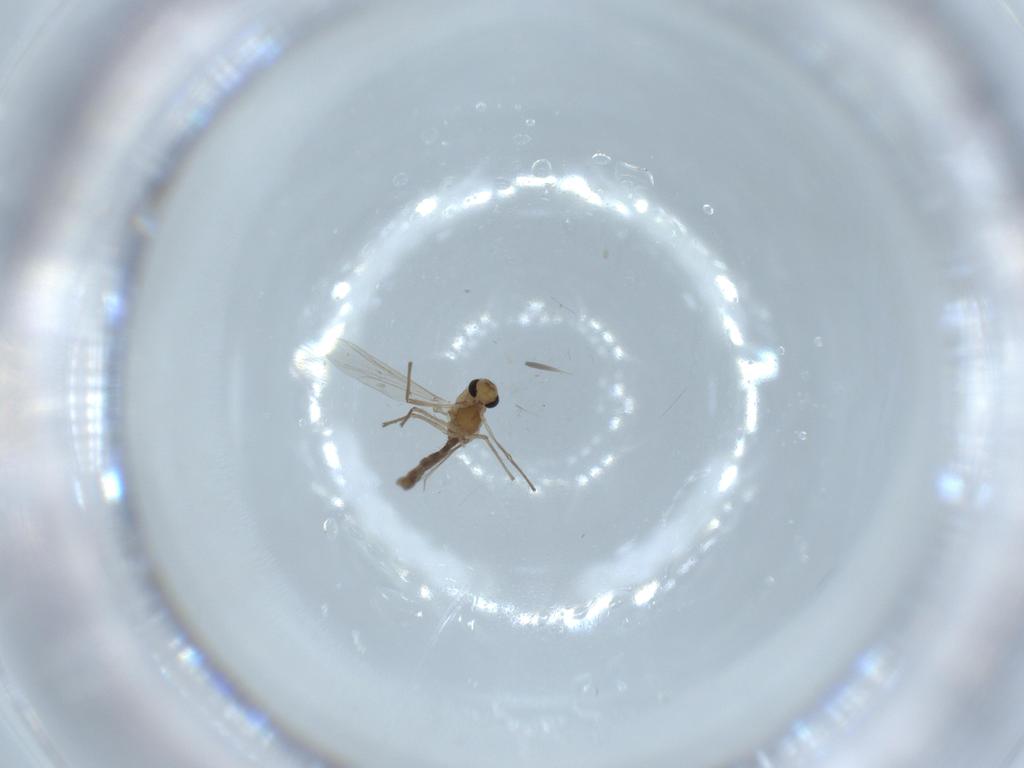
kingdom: Animalia
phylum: Arthropoda
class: Insecta
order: Diptera
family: Chironomidae
